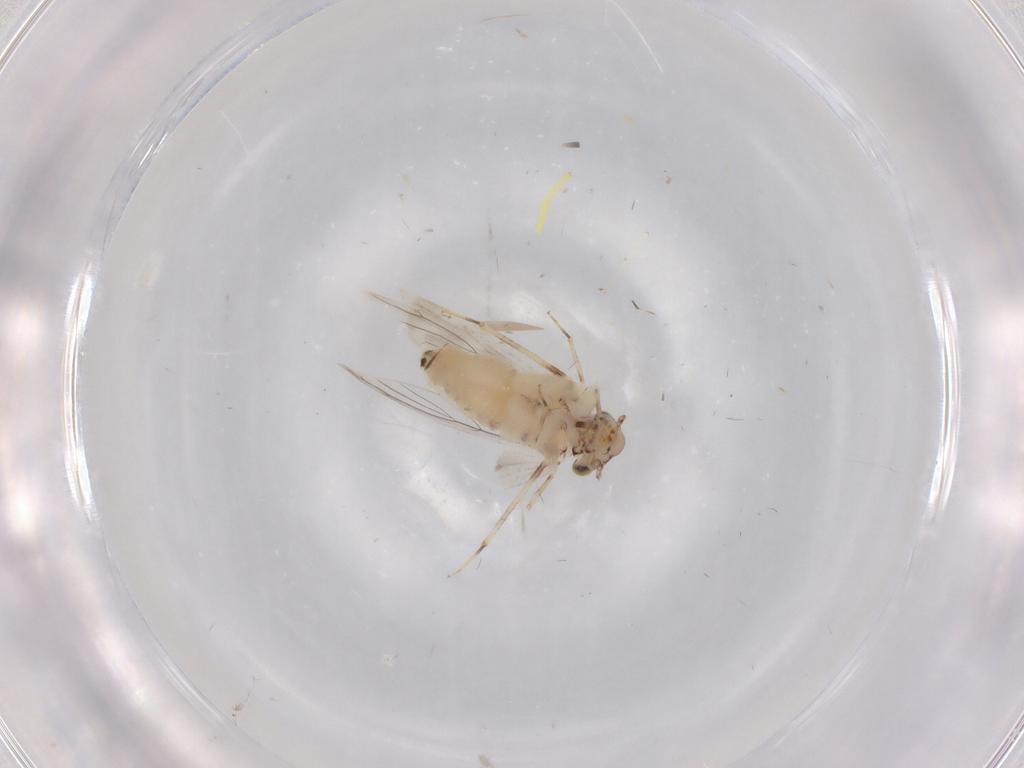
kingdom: Animalia
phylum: Arthropoda
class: Insecta
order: Psocodea
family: Lepidopsocidae
